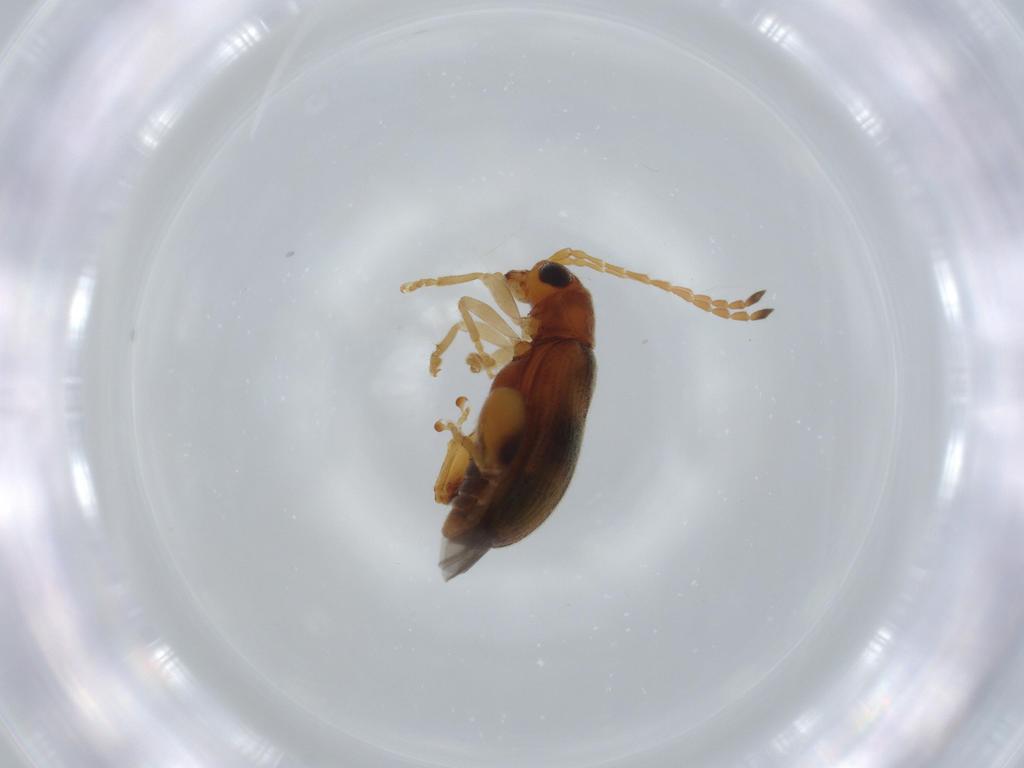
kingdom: Animalia
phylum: Arthropoda
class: Insecta
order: Coleoptera
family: Chrysomelidae
